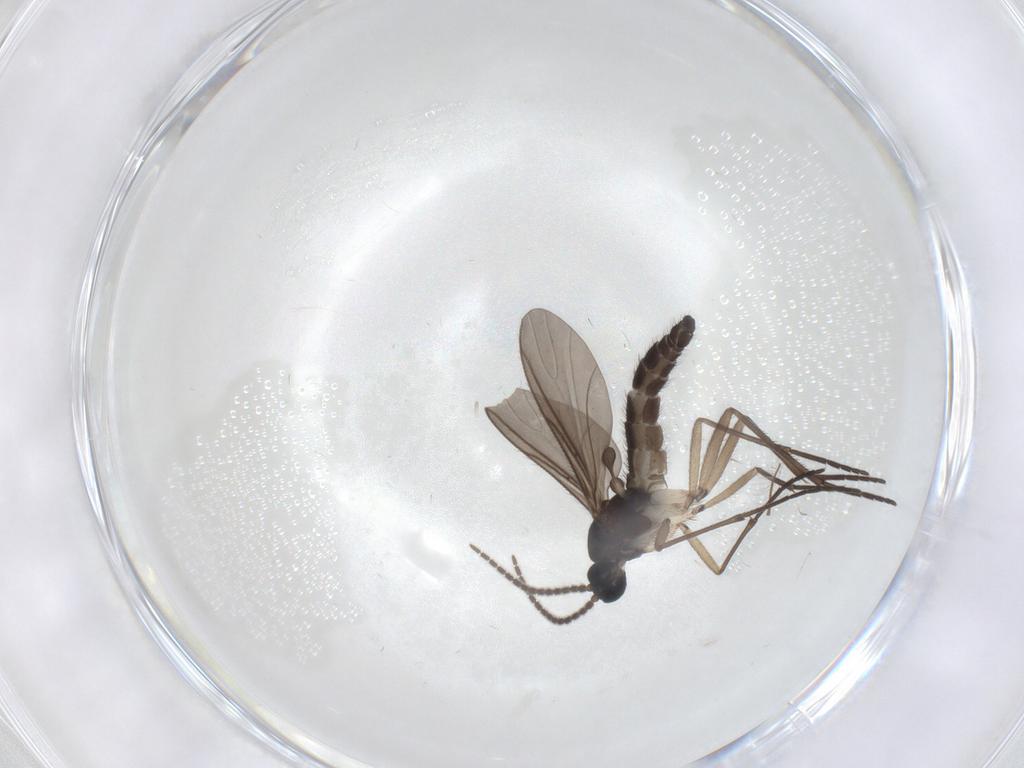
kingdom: Animalia
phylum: Arthropoda
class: Insecta
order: Diptera
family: Sciaridae
